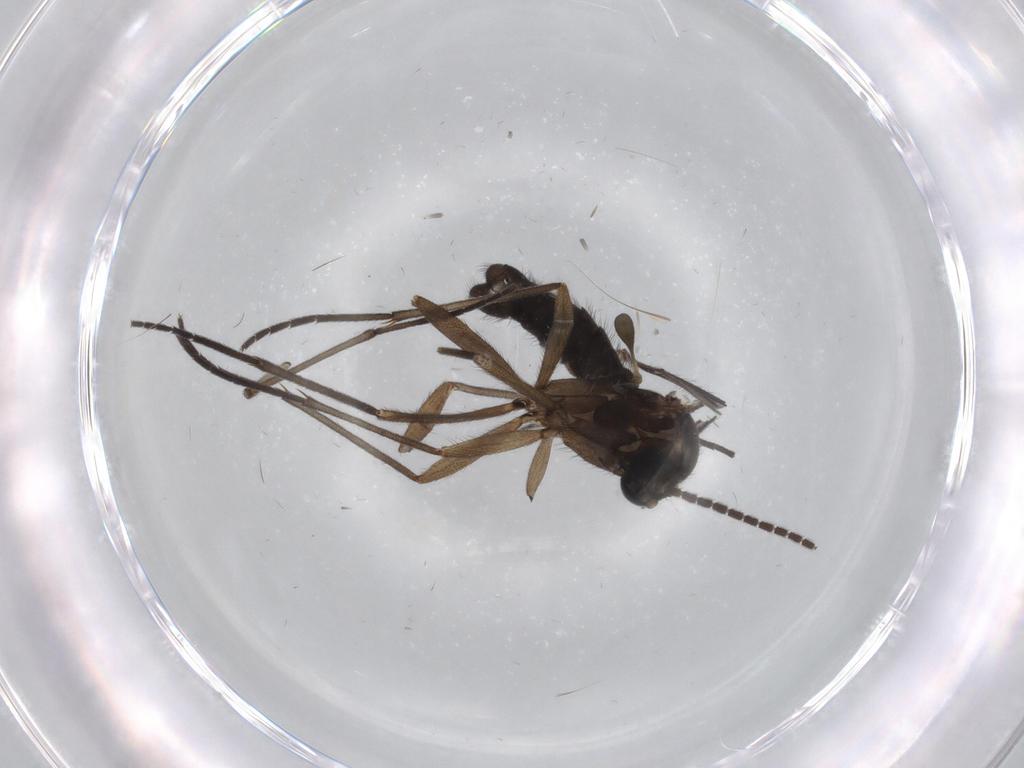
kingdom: Animalia
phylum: Arthropoda
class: Insecta
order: Diptera
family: Sciaridae
